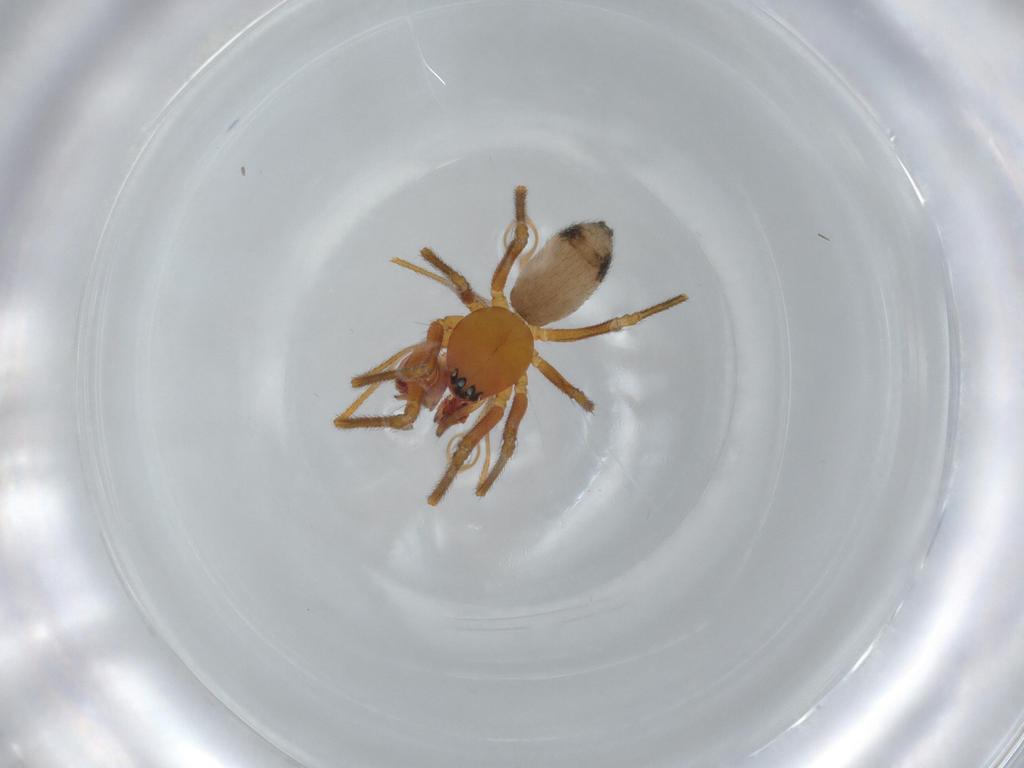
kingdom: Animalia
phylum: Arthropoda
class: Arachnida
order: Araneae
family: Linyphiidae
